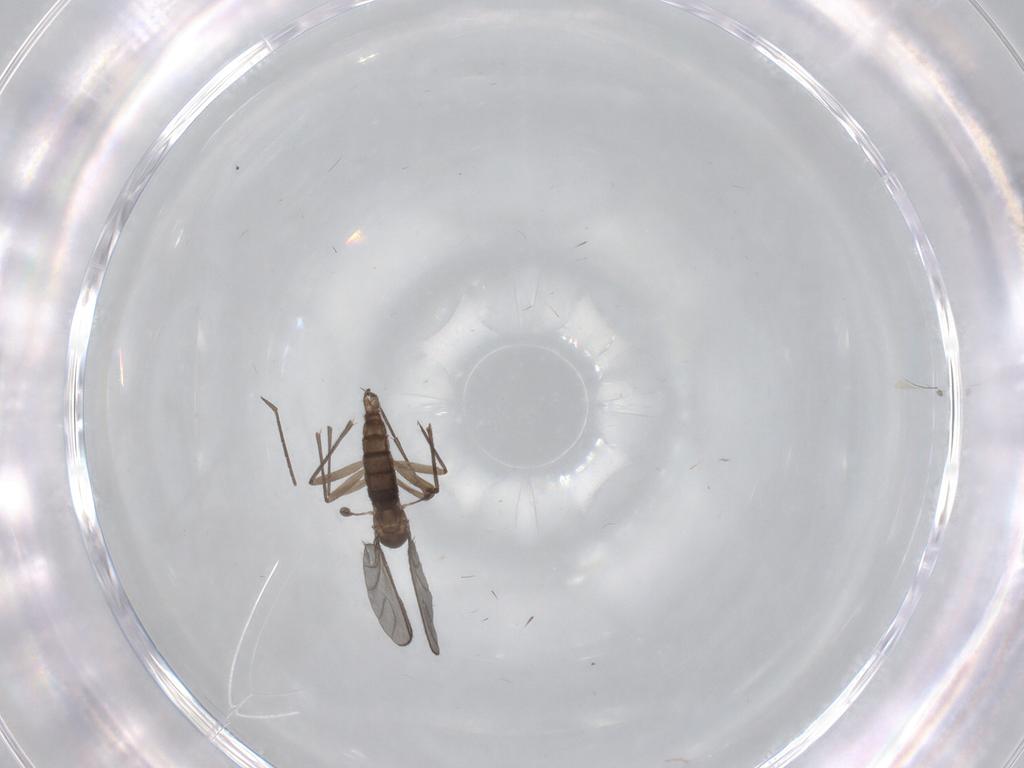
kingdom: Animalia
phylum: Arthropoda
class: Insecta
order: Diptera
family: Sciaridae
